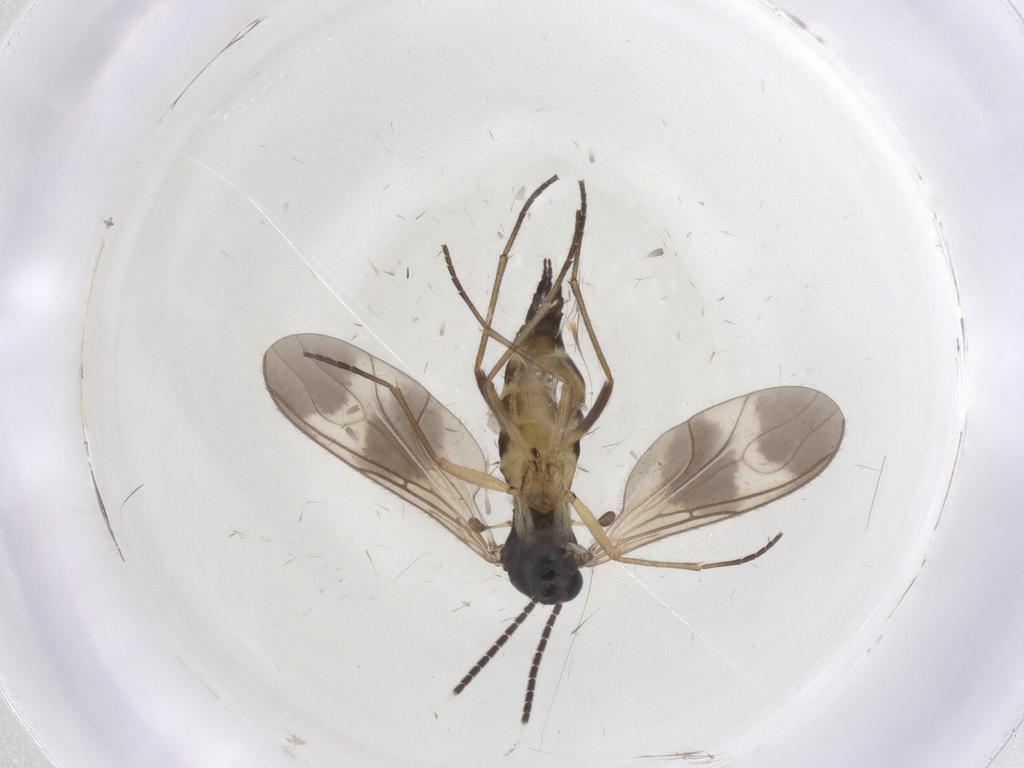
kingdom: Animalia
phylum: Arthropoda
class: Insecta
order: Diptera
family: Sciaridae
